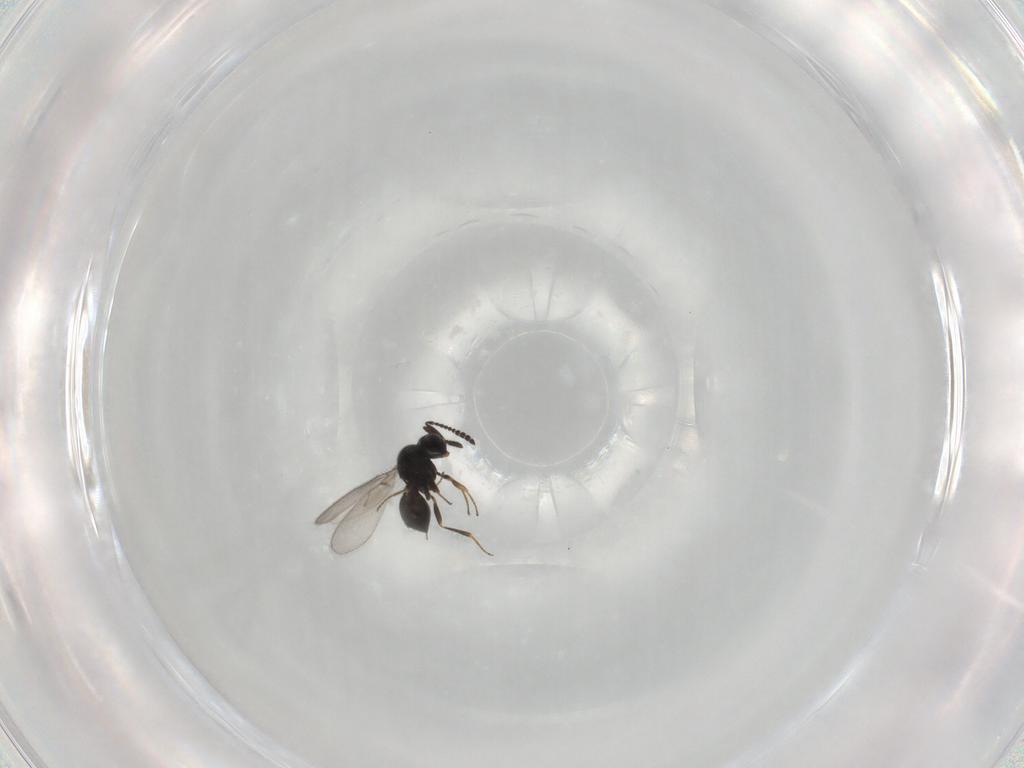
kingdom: Animalia
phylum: Arthropoda
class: Insecta
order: Hymenoptera
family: Scelionidae
